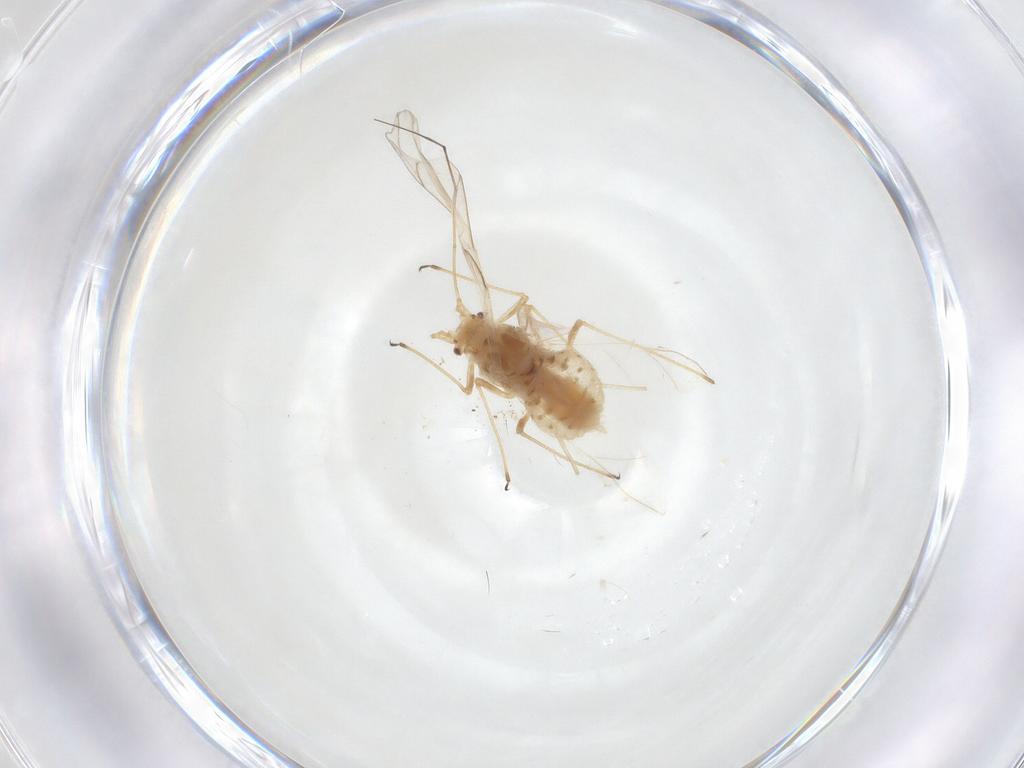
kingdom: Animalia
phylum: Arthropoda
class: Insecta
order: Hemiptera
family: Aphididae
